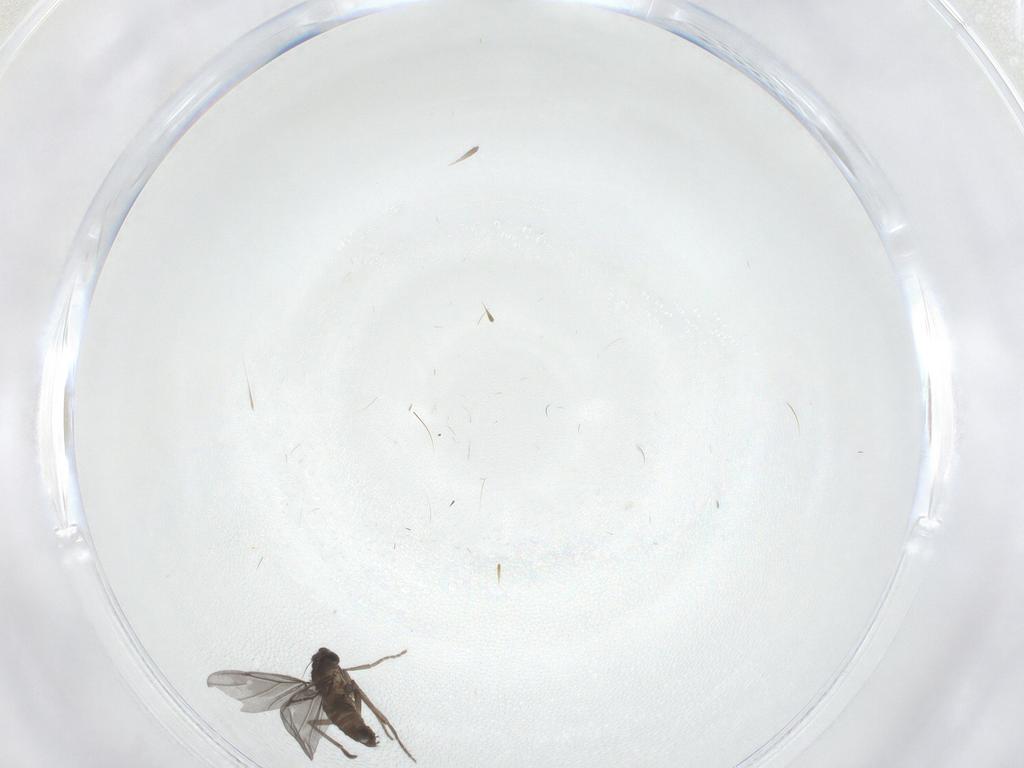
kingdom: Animalia
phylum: Arthropoda
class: Insecta
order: Diptera
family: Phoridae
